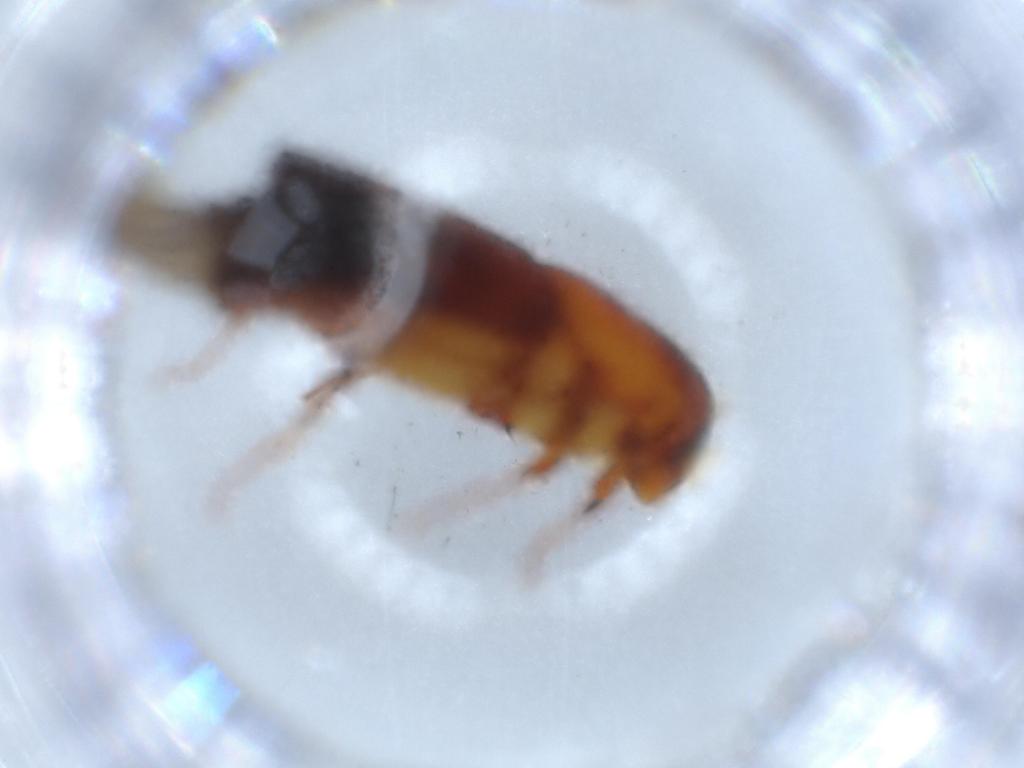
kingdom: Animalia
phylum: Arthropoda
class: Insecta
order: Coleoptera
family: Curculionidae
